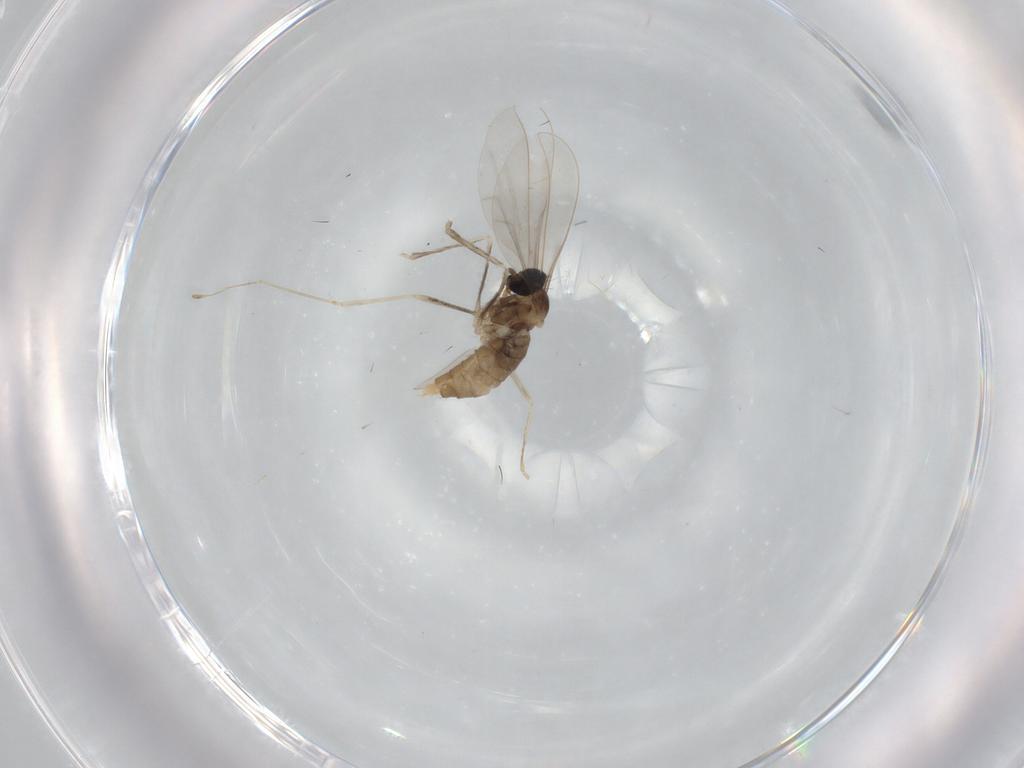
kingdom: Animalia
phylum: Arthropoda
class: Insecta
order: Diptera
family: Cecidomyiidae
